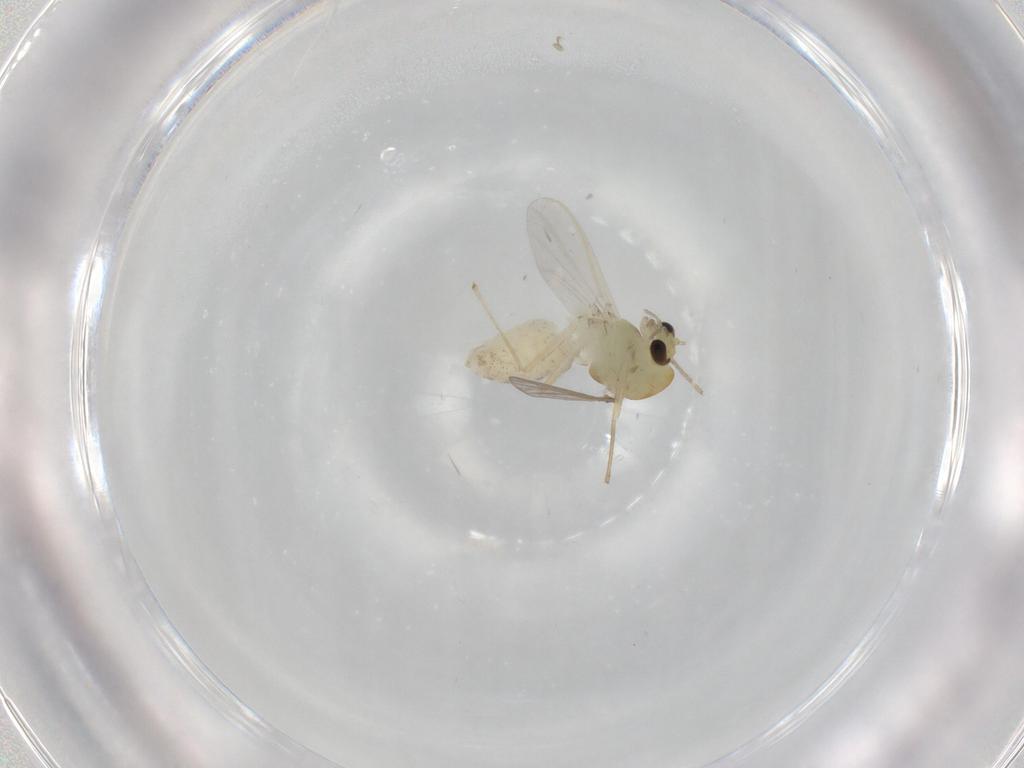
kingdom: Animalia
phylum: Arthropoda
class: Insecta
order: Diptera
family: Chironomidae
